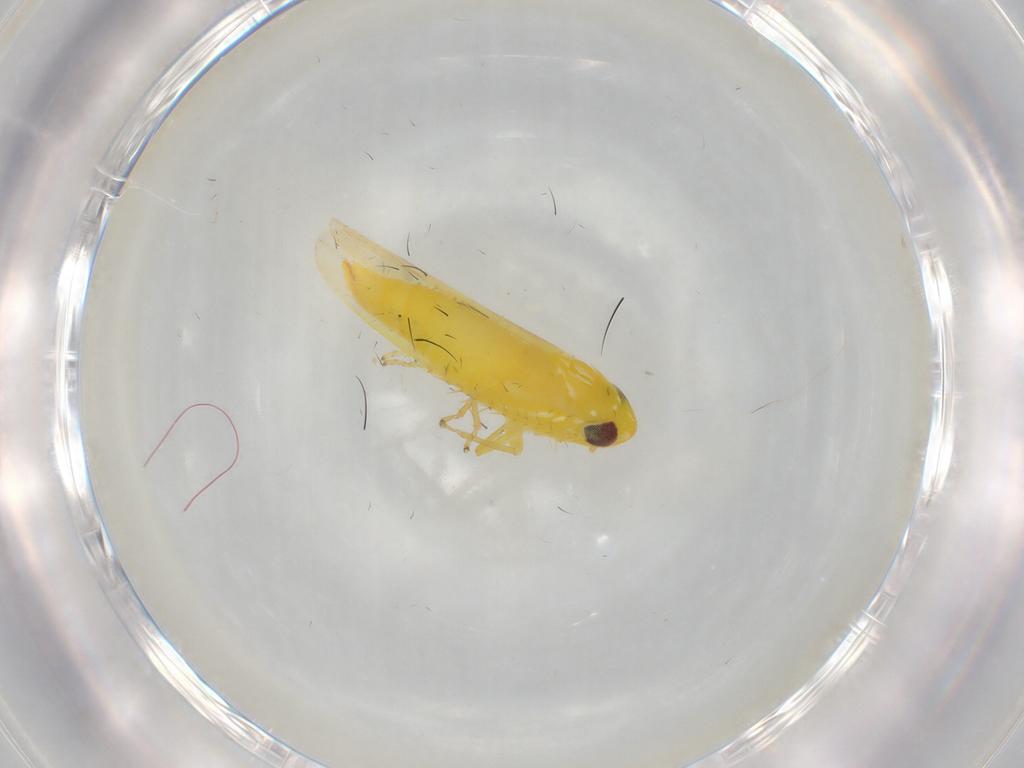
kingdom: Animalia
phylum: Arthropoda
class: Insecta
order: Hemiptera
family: Cicadellidae
